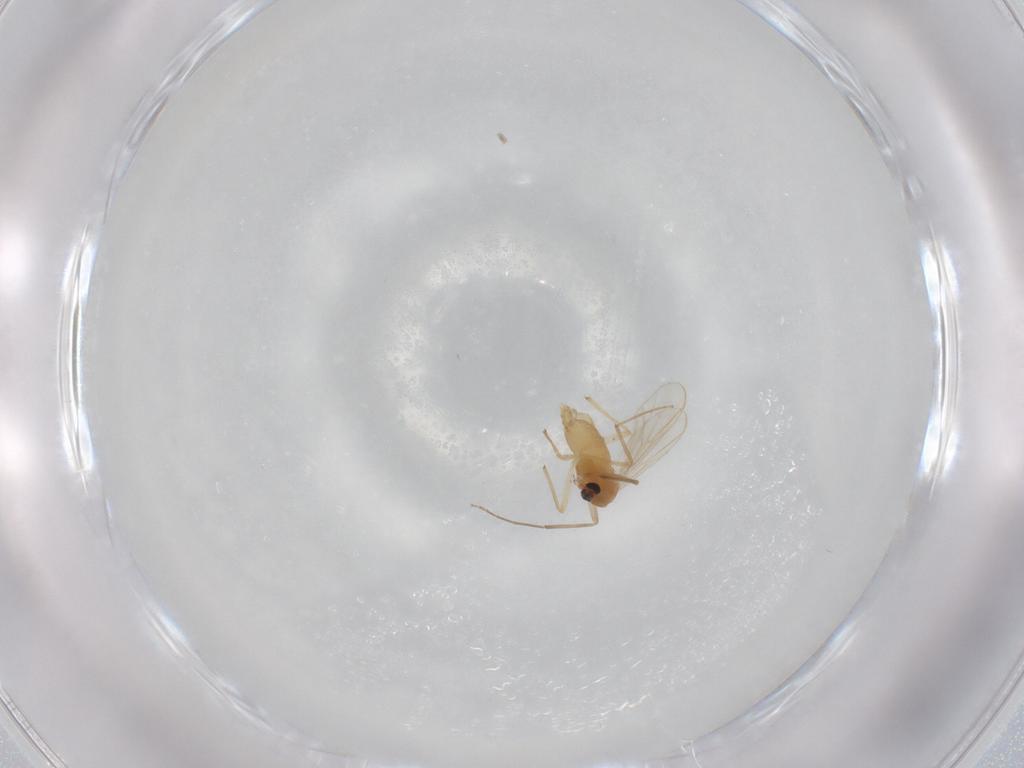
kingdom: Animalia
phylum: Arthropoda
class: Insecta
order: Diptera
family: Chironomidae
